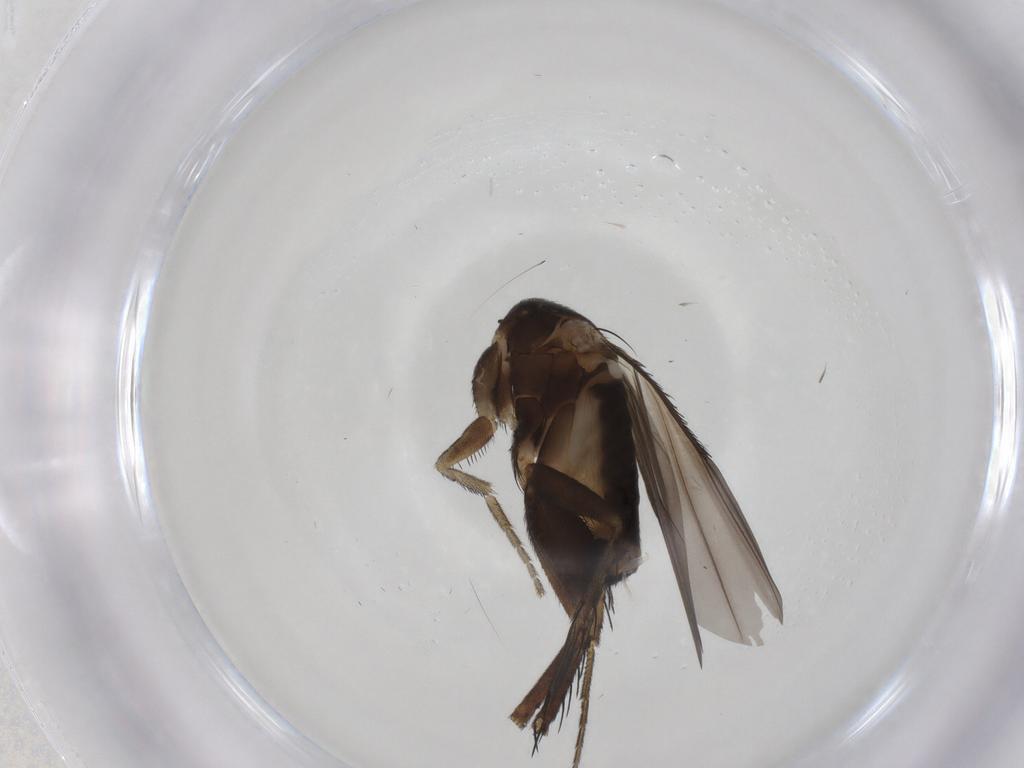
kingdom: Animalia
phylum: Arthropoda
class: Insecta
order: Diptera
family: Sphaeroceridae
